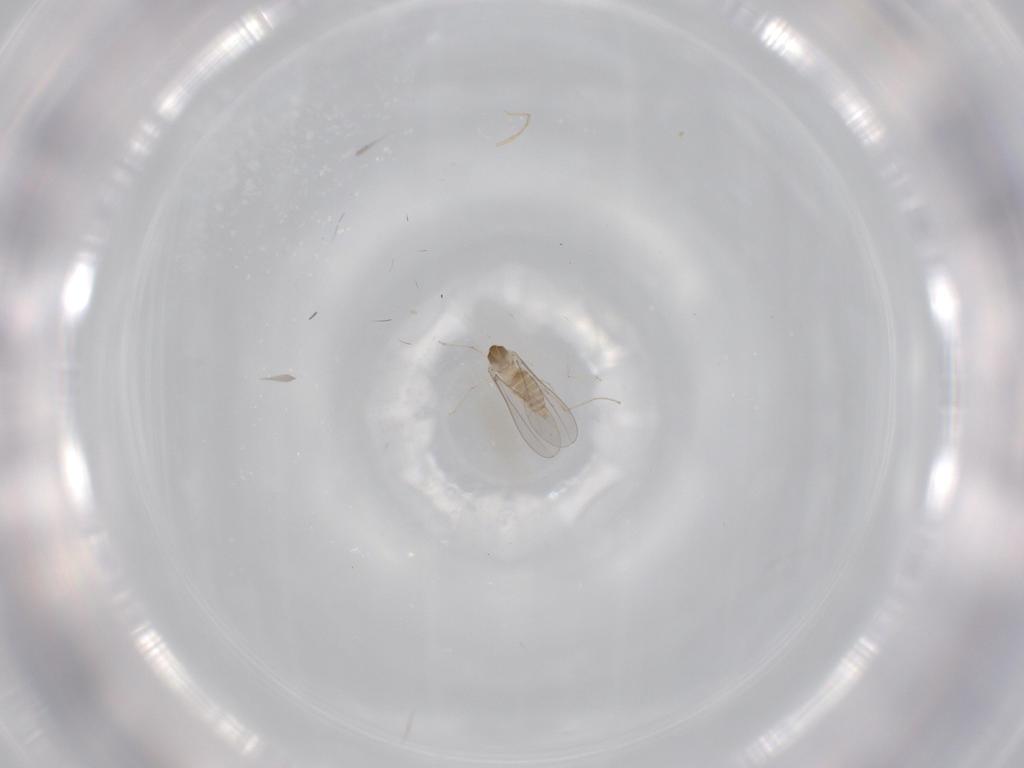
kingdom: Animalia
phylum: Arthropoda
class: Insecta
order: Diptera
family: Cecidomyiidae
